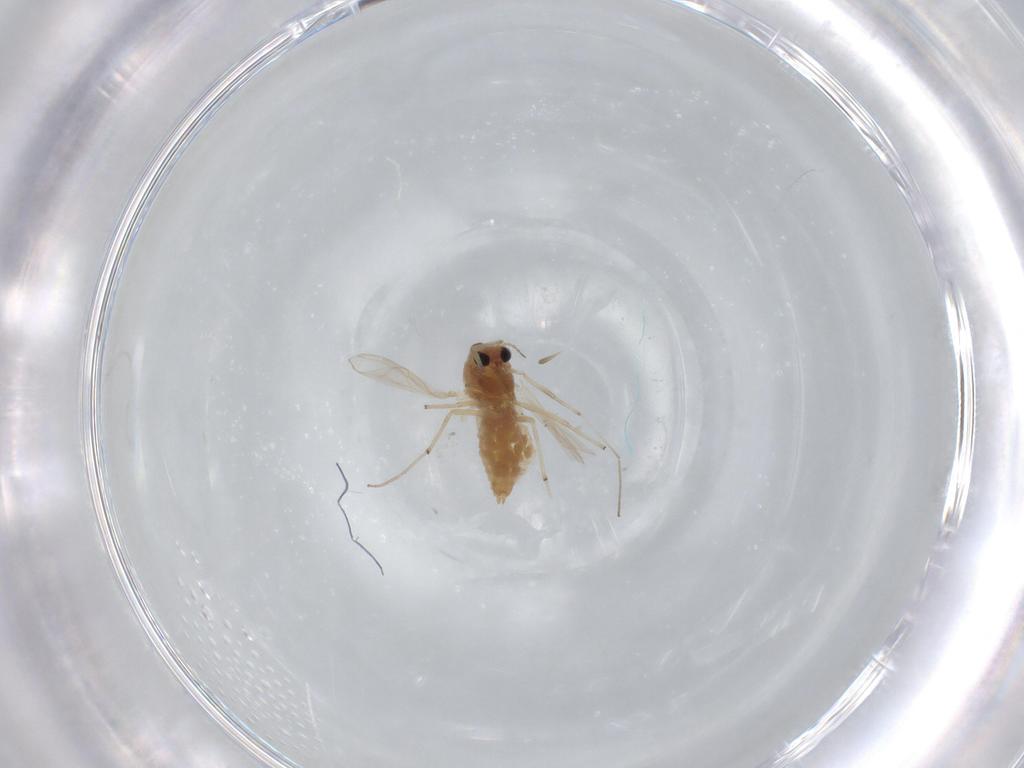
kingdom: Animalia
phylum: Arthropoda
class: Insecta
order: Diptera
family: Chironomidae
